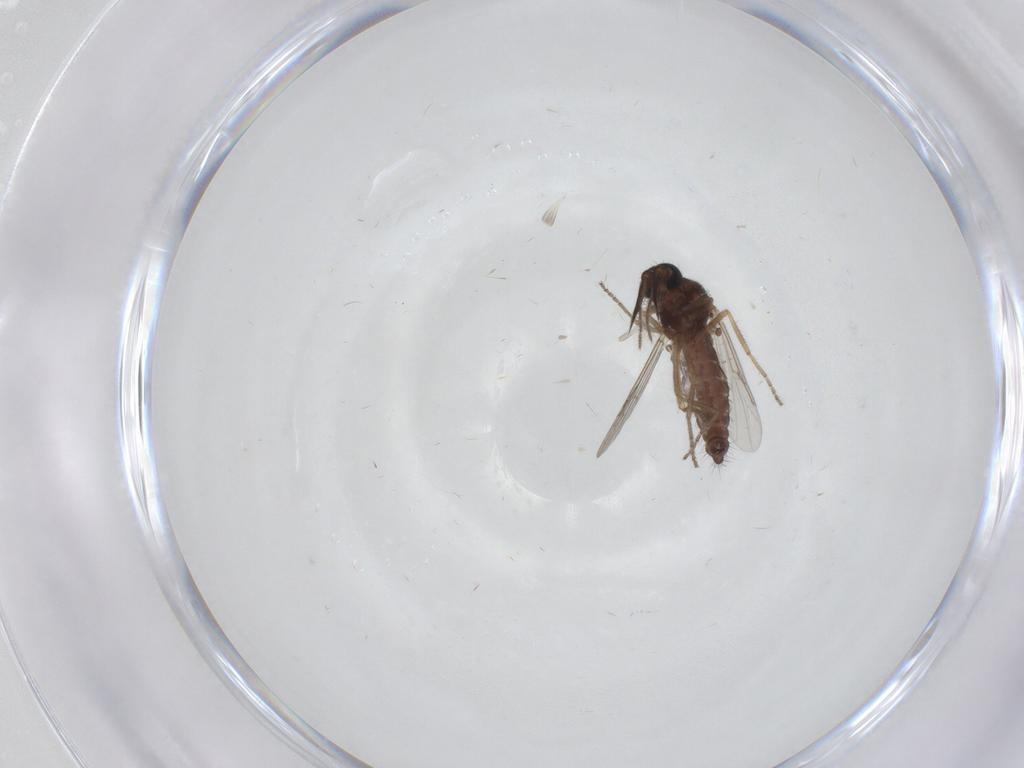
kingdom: Animalia
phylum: Arthropoda
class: Insecta
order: Diptera
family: Ceratopogonidae
